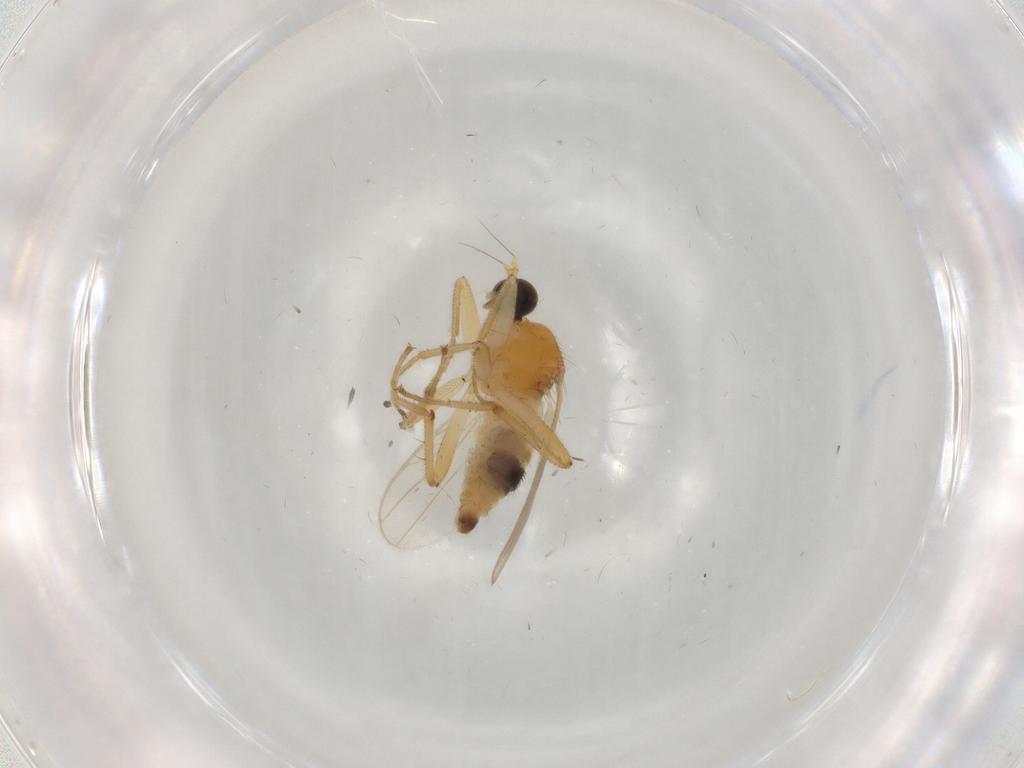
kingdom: Animalia
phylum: Arthropoda
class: Insecta
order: Diptera
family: Hybotidae
